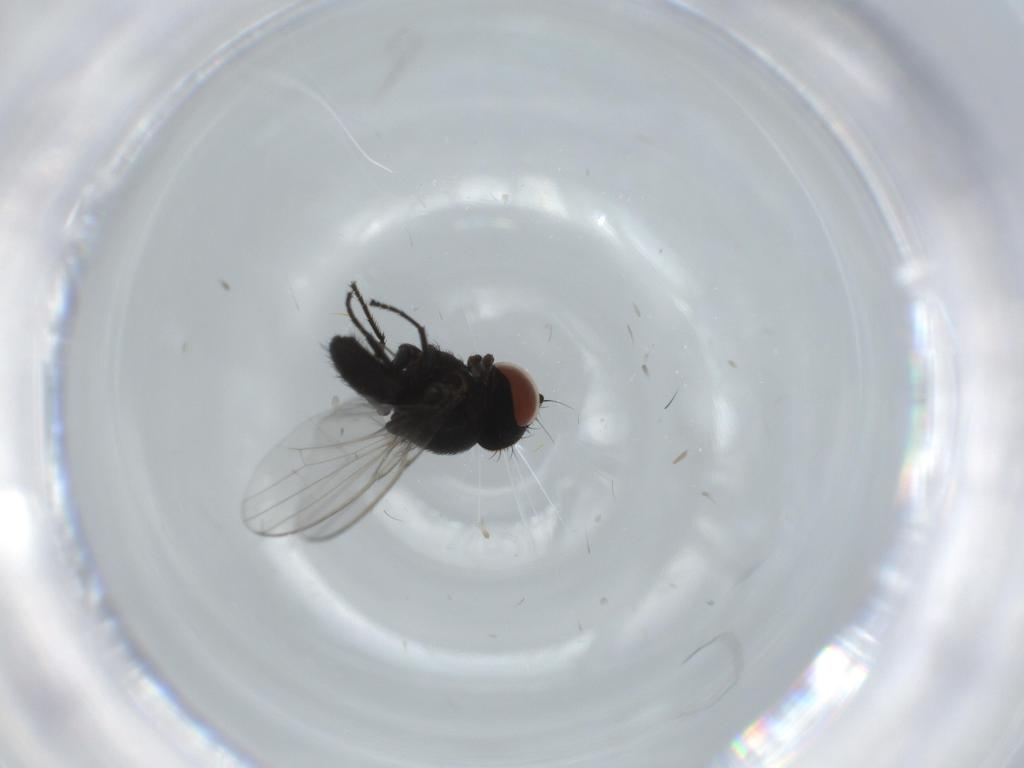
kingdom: Animalia
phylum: Arthropoda
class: Insecta
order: Diptera
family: Milichiidae
